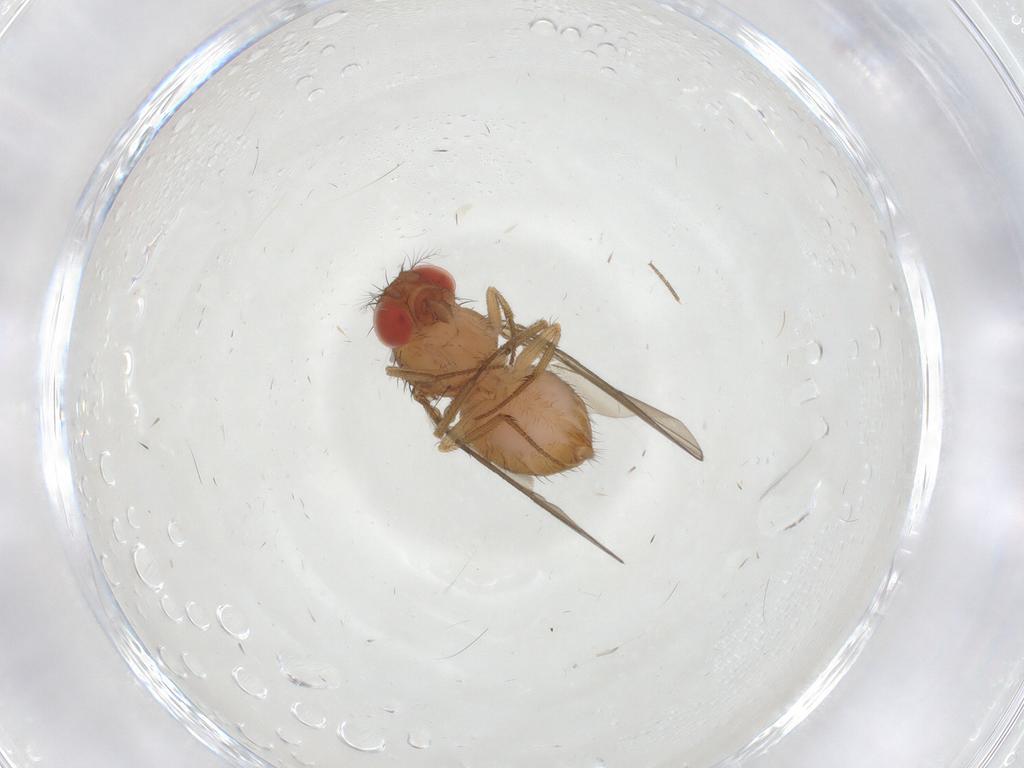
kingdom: Animalia
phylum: Arthropoda
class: Insecta
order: Diptera
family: Drosophilidae
